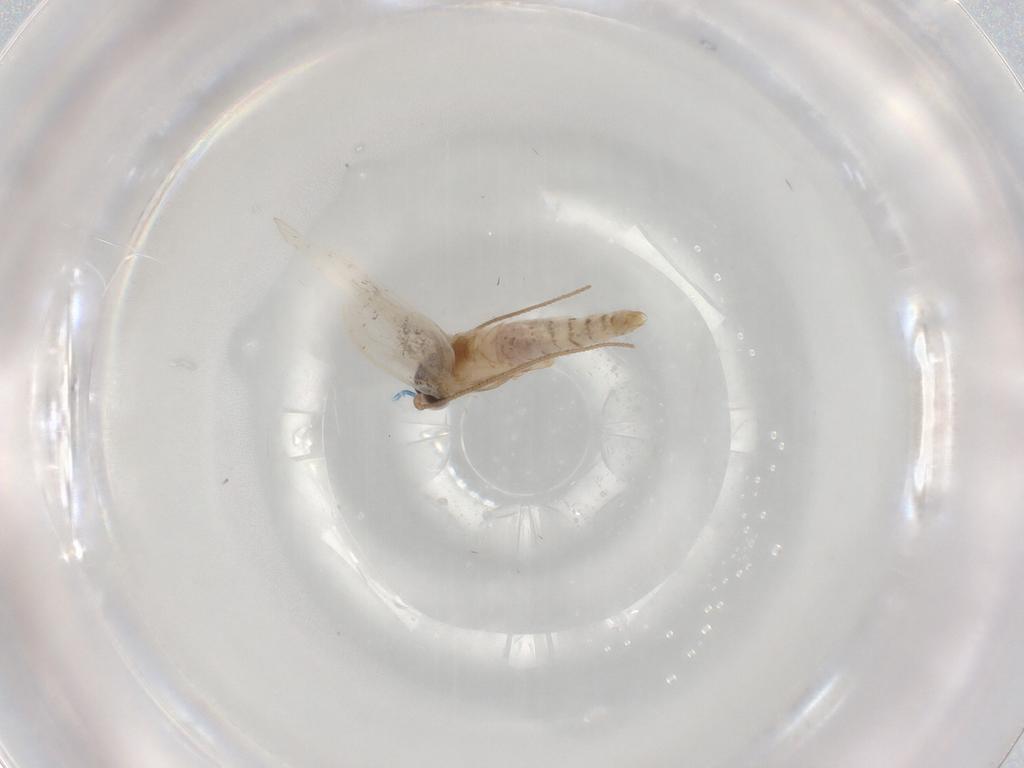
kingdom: Animalia
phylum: Arthropoda
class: Insecta
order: Lepidoptera
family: Tineidae
